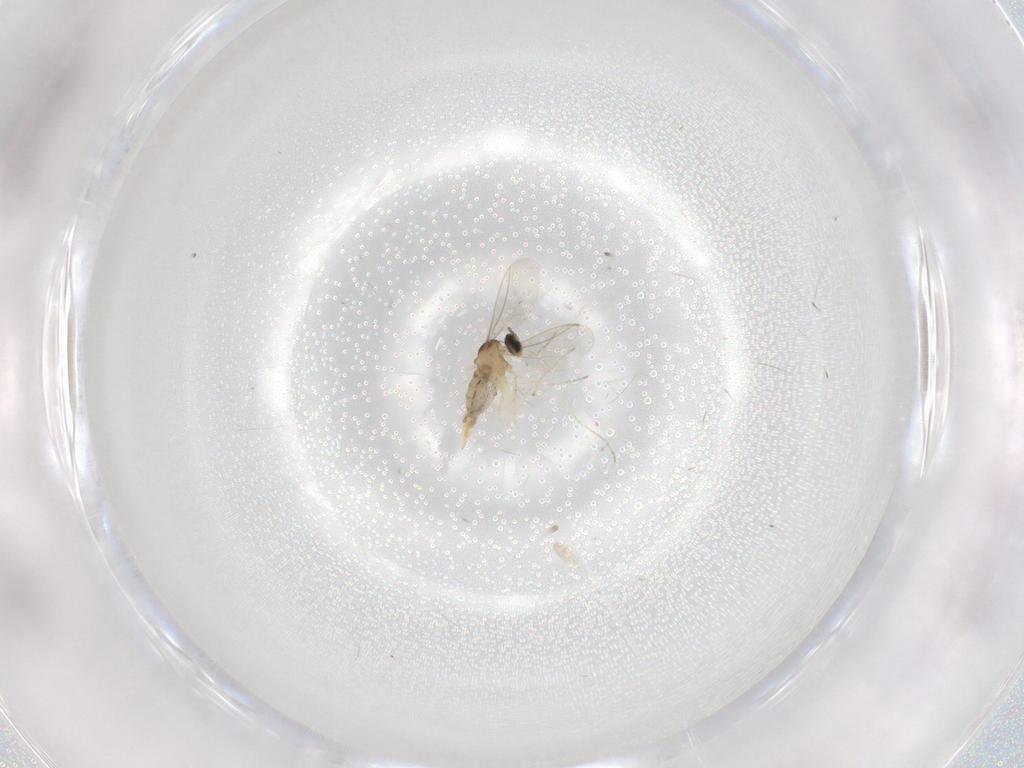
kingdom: Animalia
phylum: Arthropoda
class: Insecta
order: Diptera
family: Cecidomyiidae
